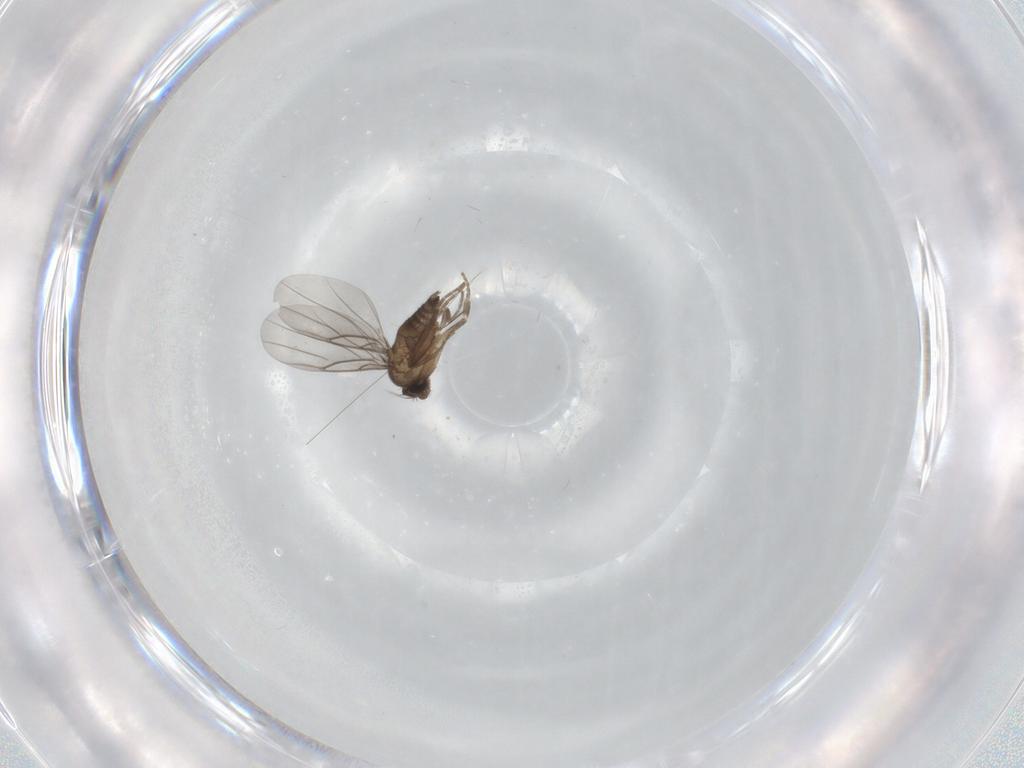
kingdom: Animalia
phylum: Arthropoda
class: Insecta
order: Diptera
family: Phoridae
